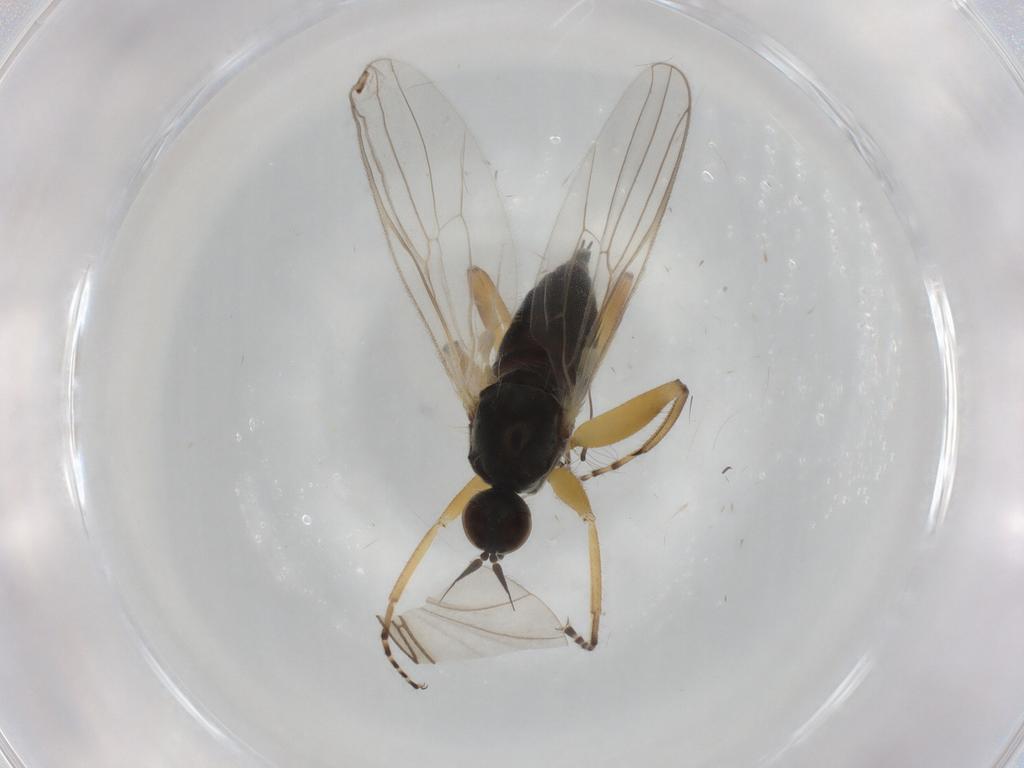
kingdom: Animalia
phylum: Arthropoda
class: Insecta
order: Diptera
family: Hybotidae
